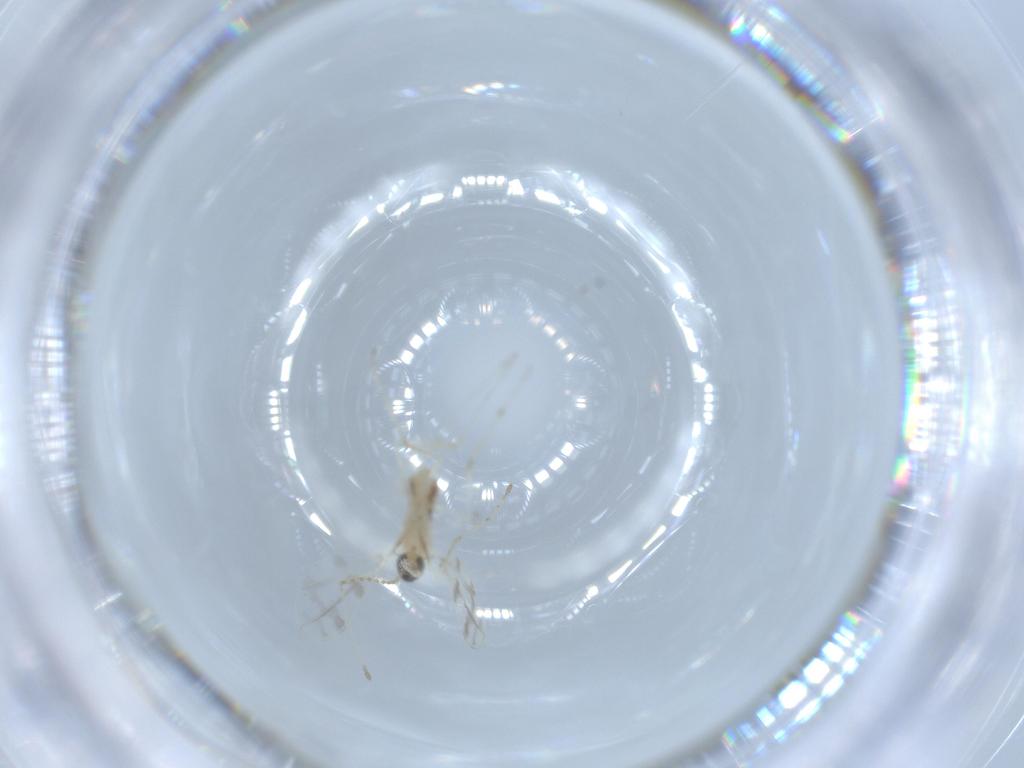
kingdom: Animalia
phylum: Arthropoda
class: Insecta
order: Diptera
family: Cecidomyiidae
